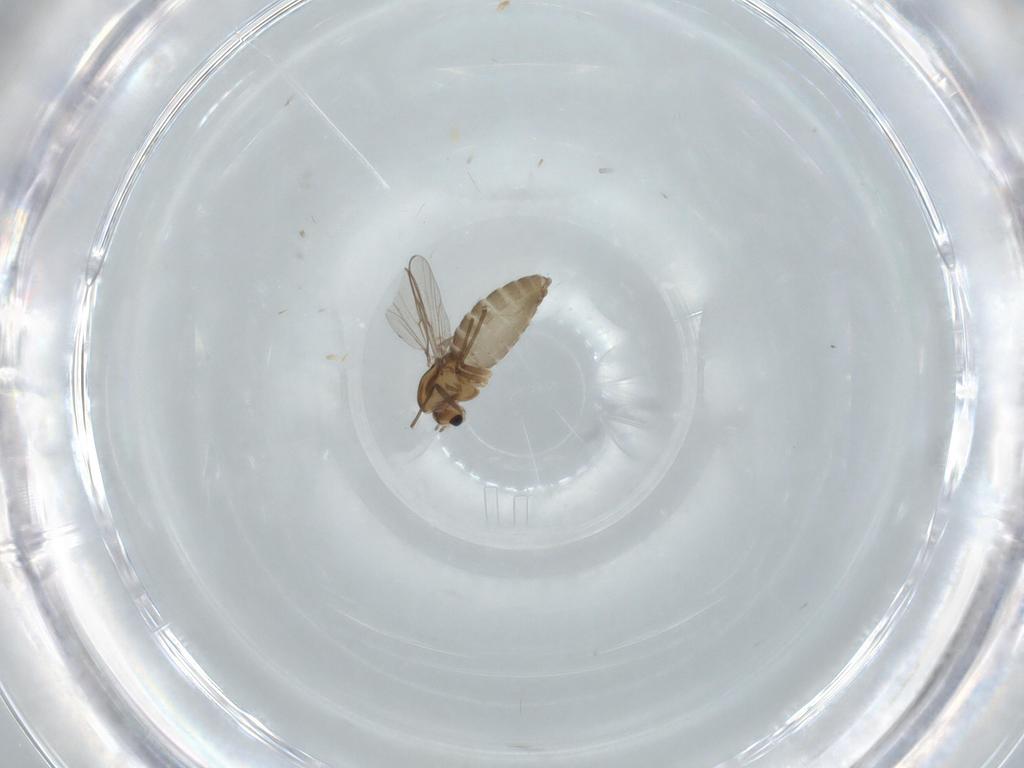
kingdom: Animalia
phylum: Arthropoda
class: Insecta
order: Diptera
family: Chironomidae
